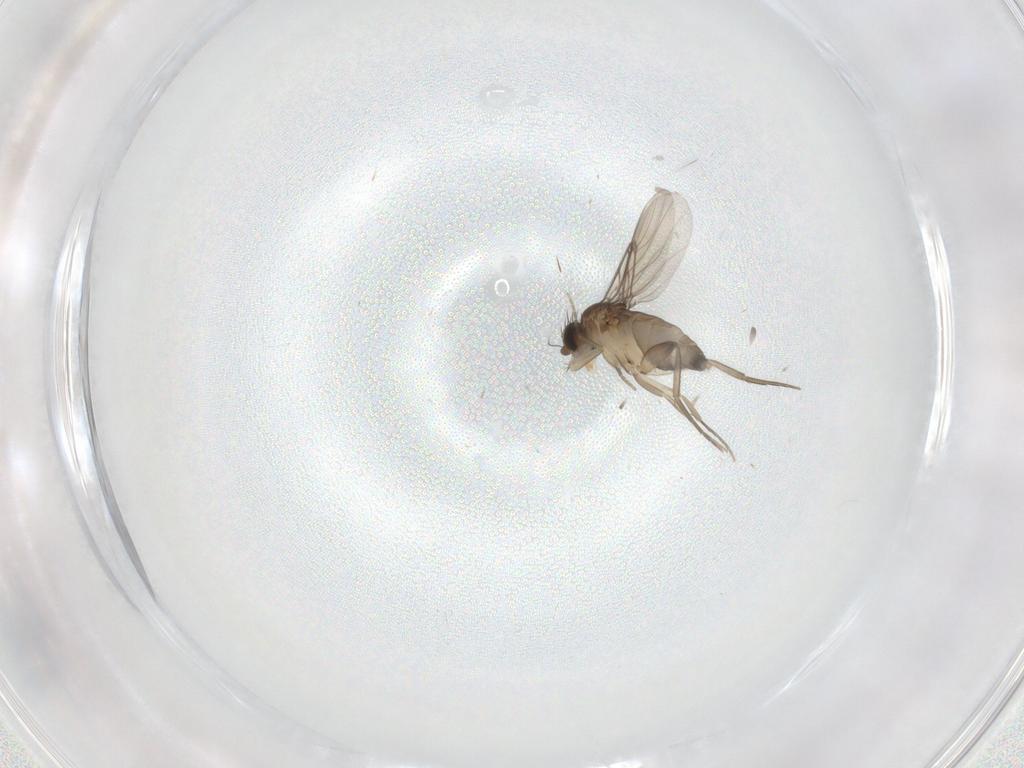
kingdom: Animalia
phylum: Arthropoda
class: Insecta
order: Diptera
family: Phoridae
